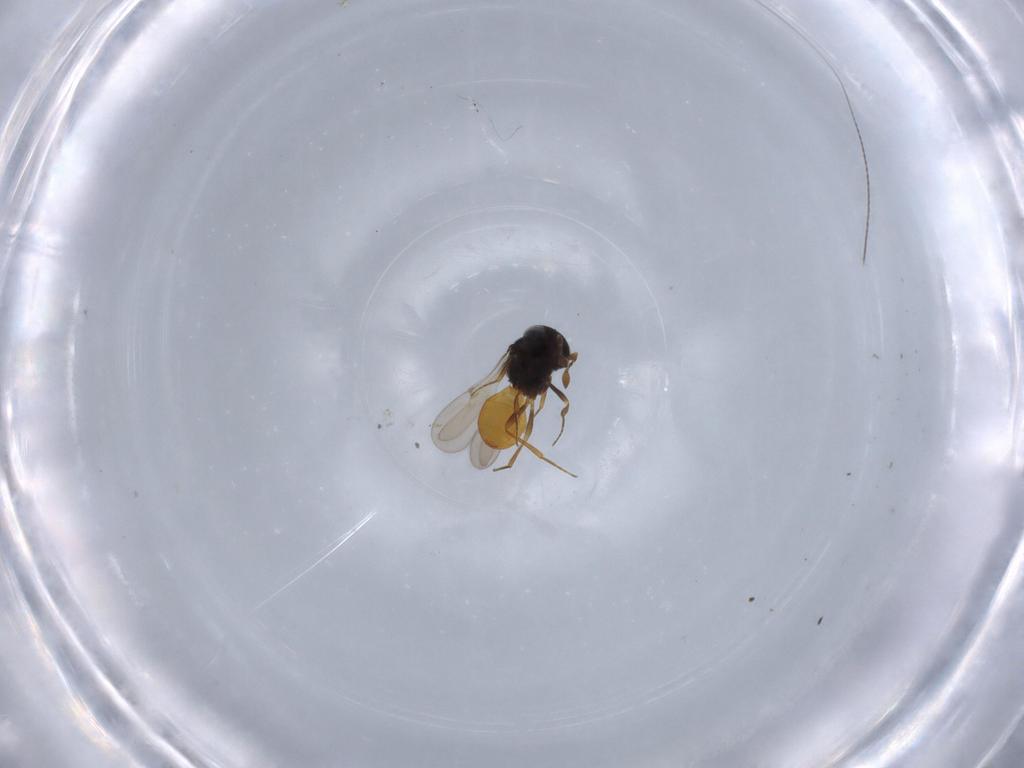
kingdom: Animalia
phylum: Arthropoda
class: Insecta
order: Hymenoptera
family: Scelionidae
